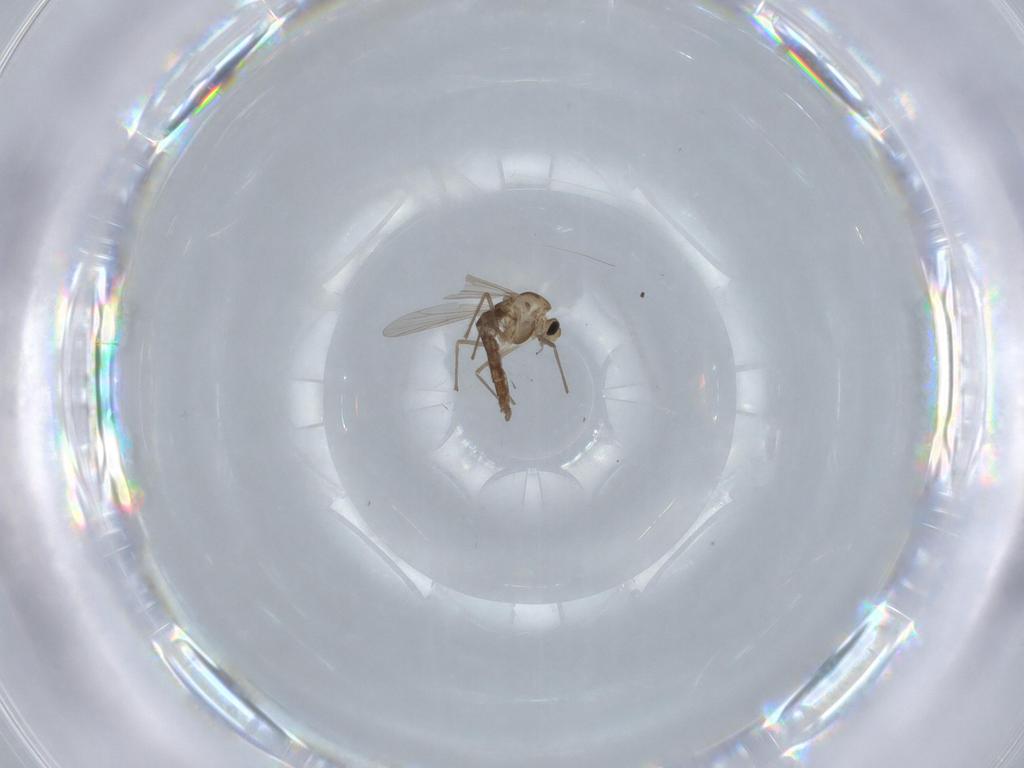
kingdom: Animalia
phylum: Arthropoda
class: Insecta
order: Diptera
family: Chironomidae
